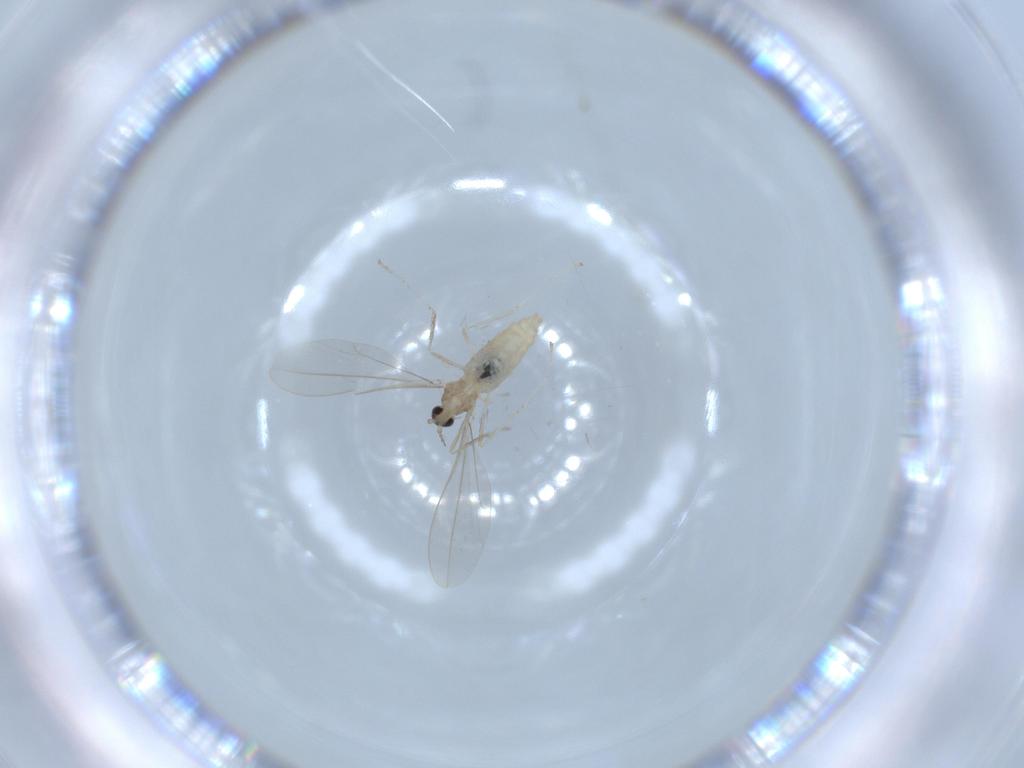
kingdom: Animalia
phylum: Arthropoda
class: Insecta
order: Diptera
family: Cecidomyiidae
